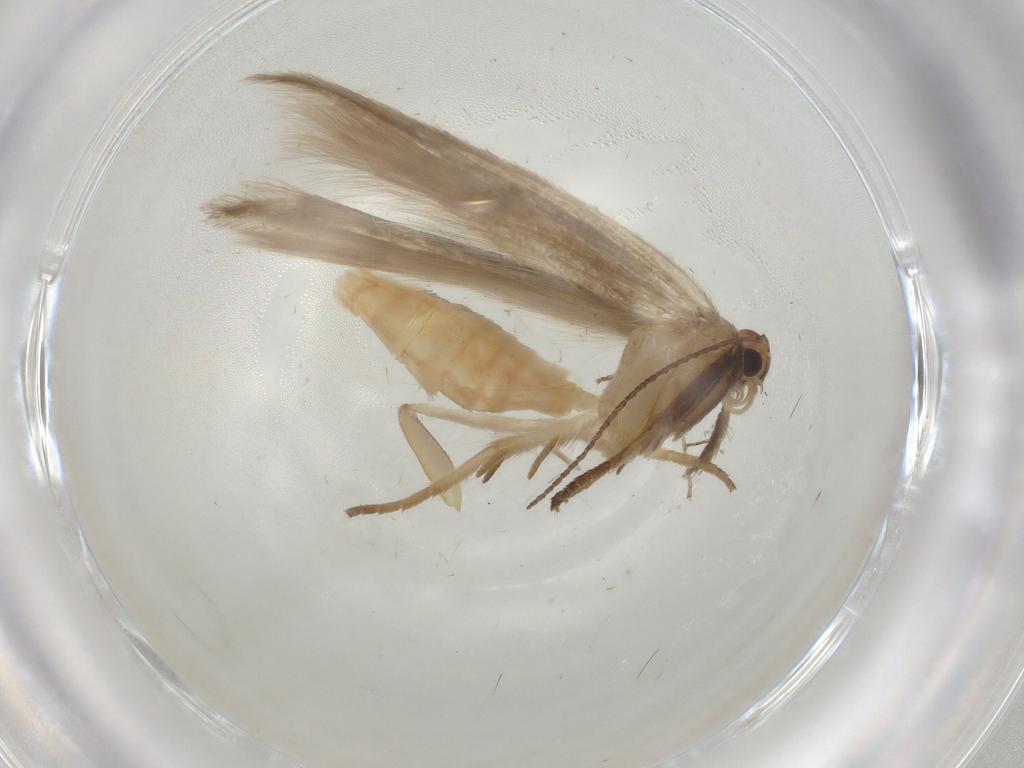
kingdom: Animalia
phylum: Arthropoda
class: Insecta
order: Lepidoptera
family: Gelechiidae
